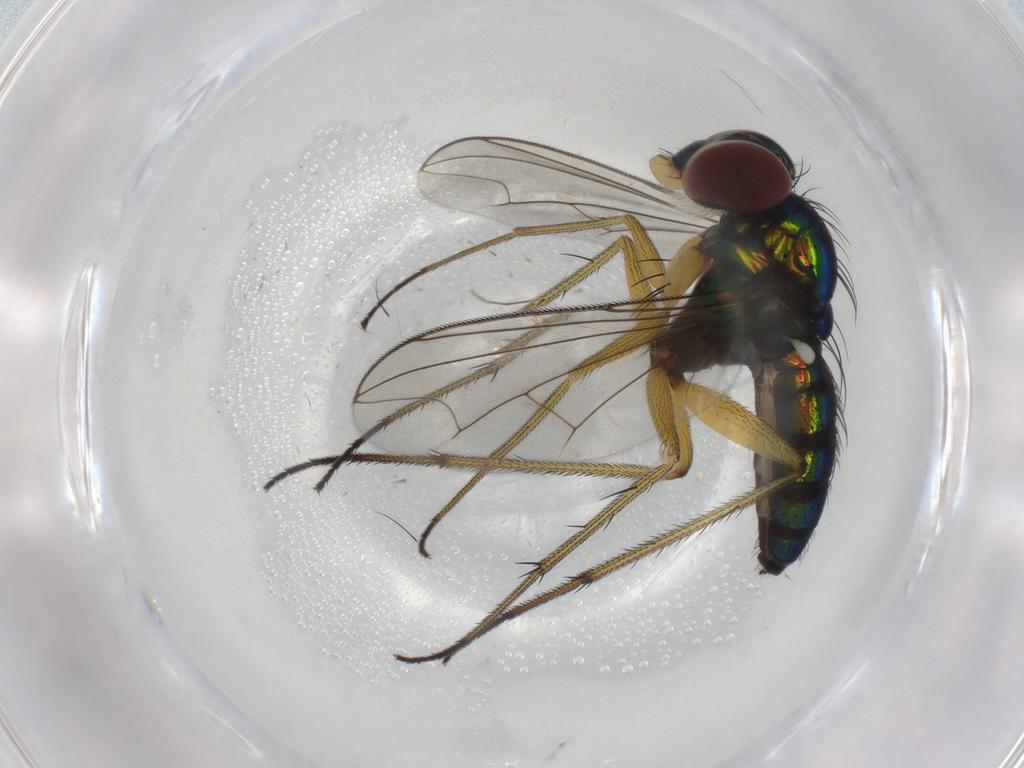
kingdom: Animalia
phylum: Arthropoda
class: Insecta
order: Diptera
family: Dolichopodidae
